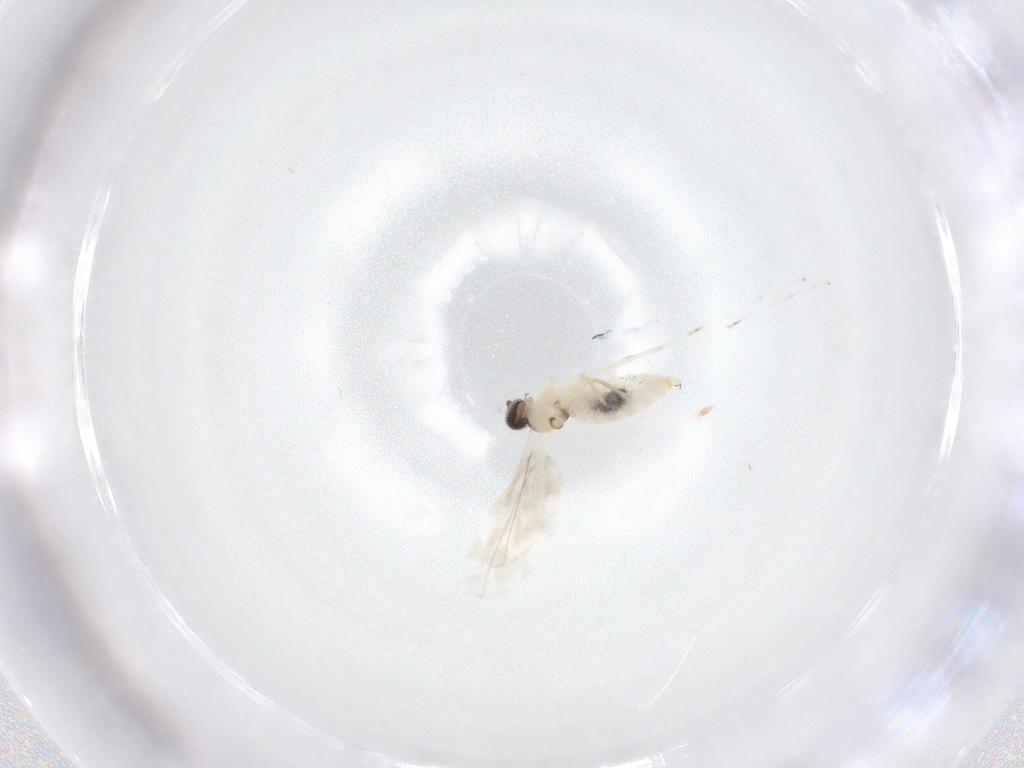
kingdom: Animalia
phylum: Arthropoda
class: Insecta
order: Diptera
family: Cecidomyiidae
